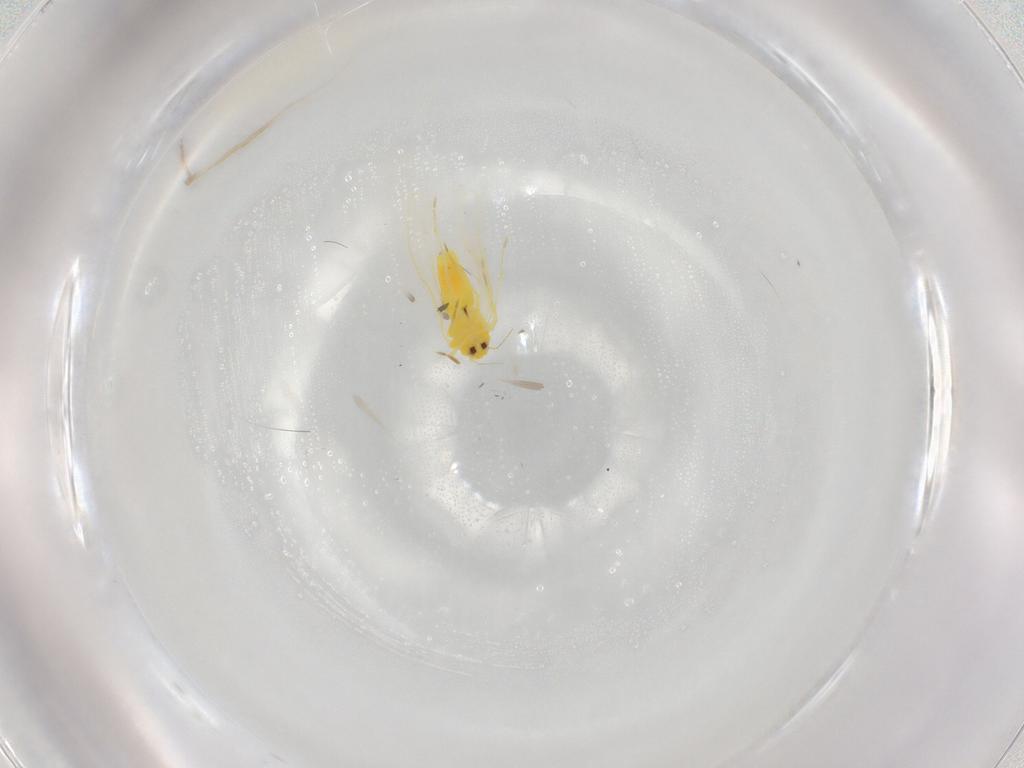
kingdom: Animalia
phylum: Arthropoda
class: Insecta
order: Hemiptera
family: Aleyrodidae
